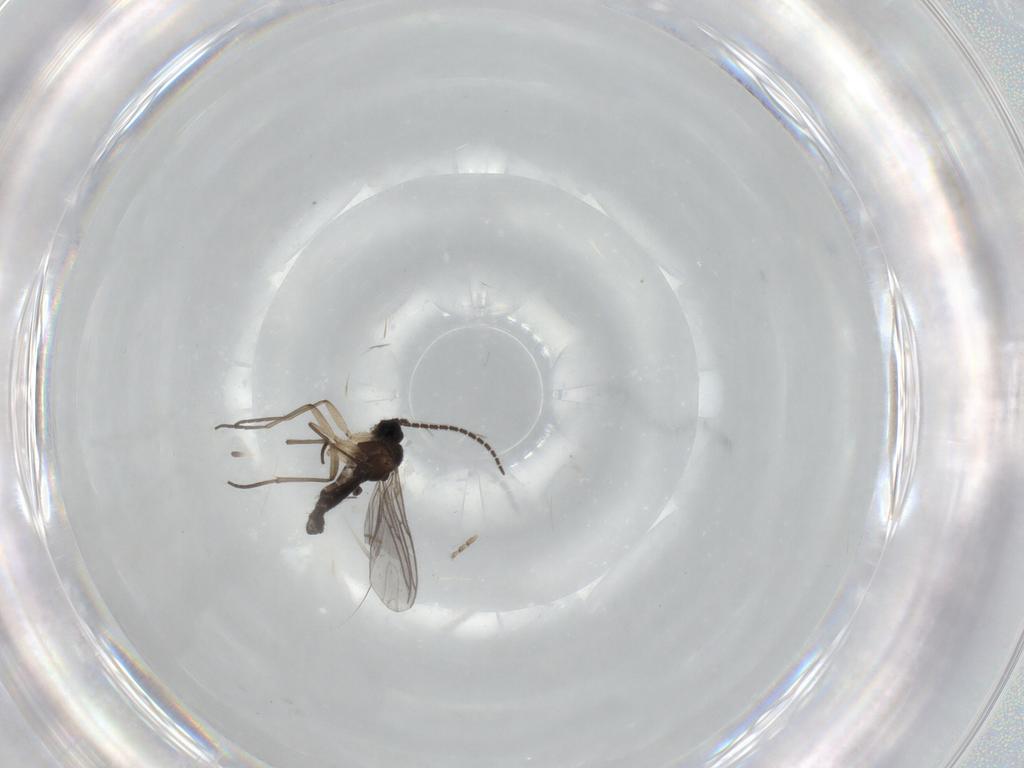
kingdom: Animalia
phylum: Arthropoda
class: Insecta
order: Diptera
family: Sciaridae
